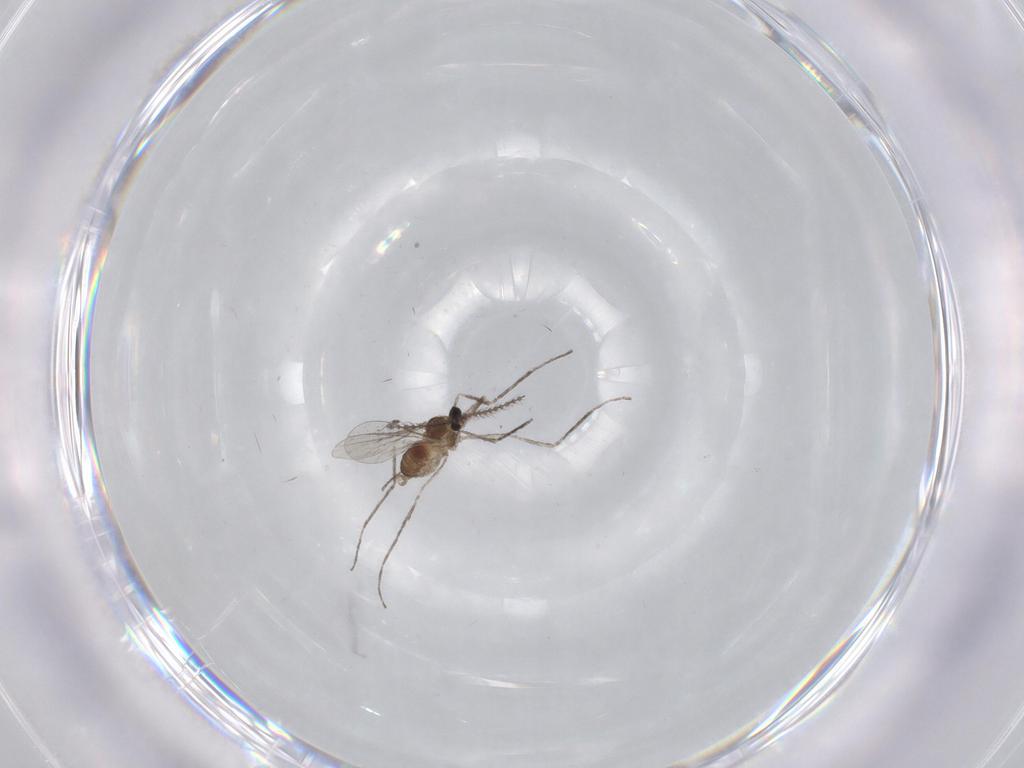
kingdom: Animalia
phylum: Arthropoda
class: Insecta
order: Diptera
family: Cecidomyiidae
